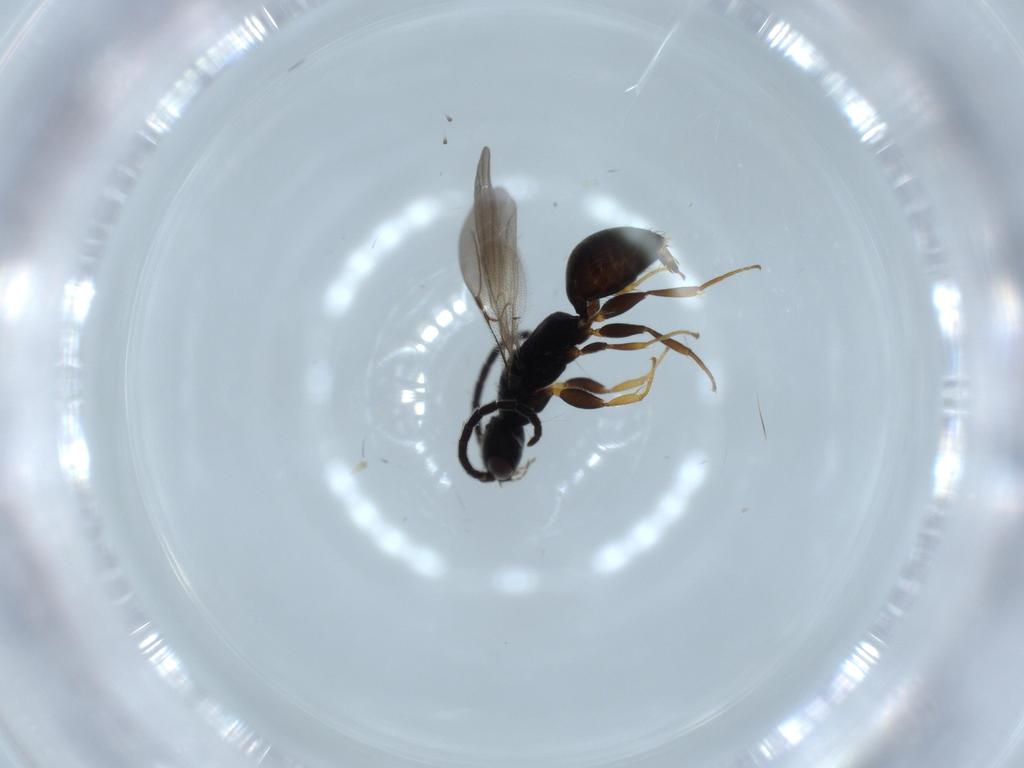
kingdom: Animalia
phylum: Arthropoda
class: Insecta
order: Hymenoptera
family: Bethylidae
